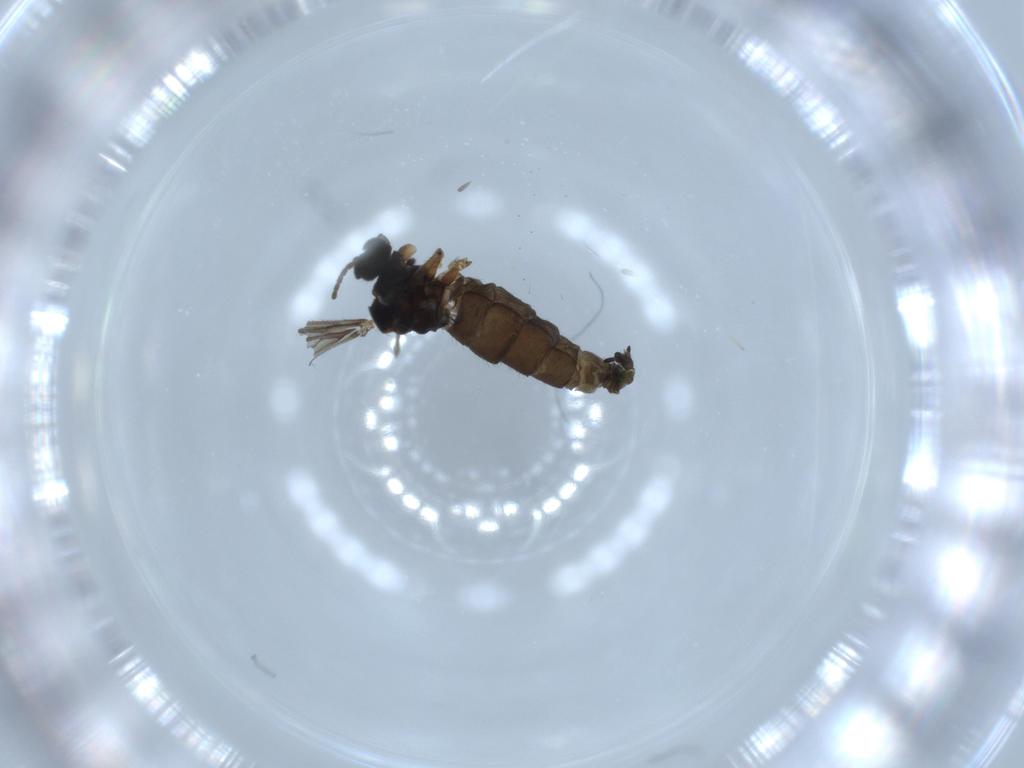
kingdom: Animalia
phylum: Arthropoda
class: Insecta
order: Diptera
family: Sciaridae
